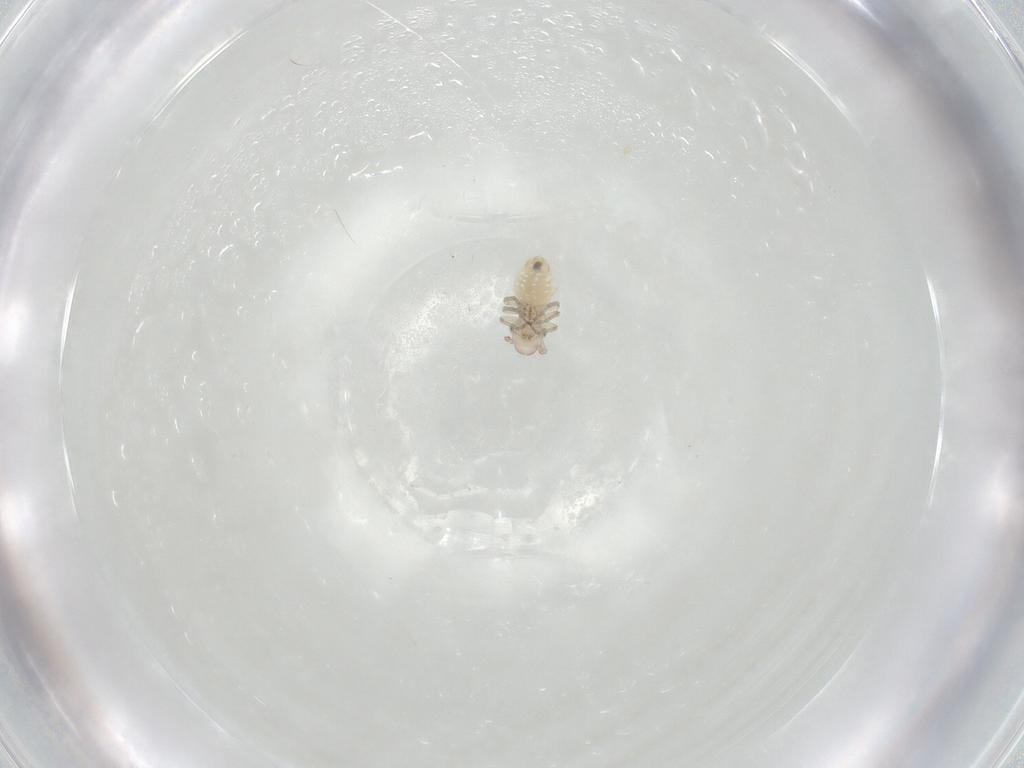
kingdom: Animalia
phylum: Arthropoda
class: Insecta
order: Psocodea
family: Caeciliusidae
